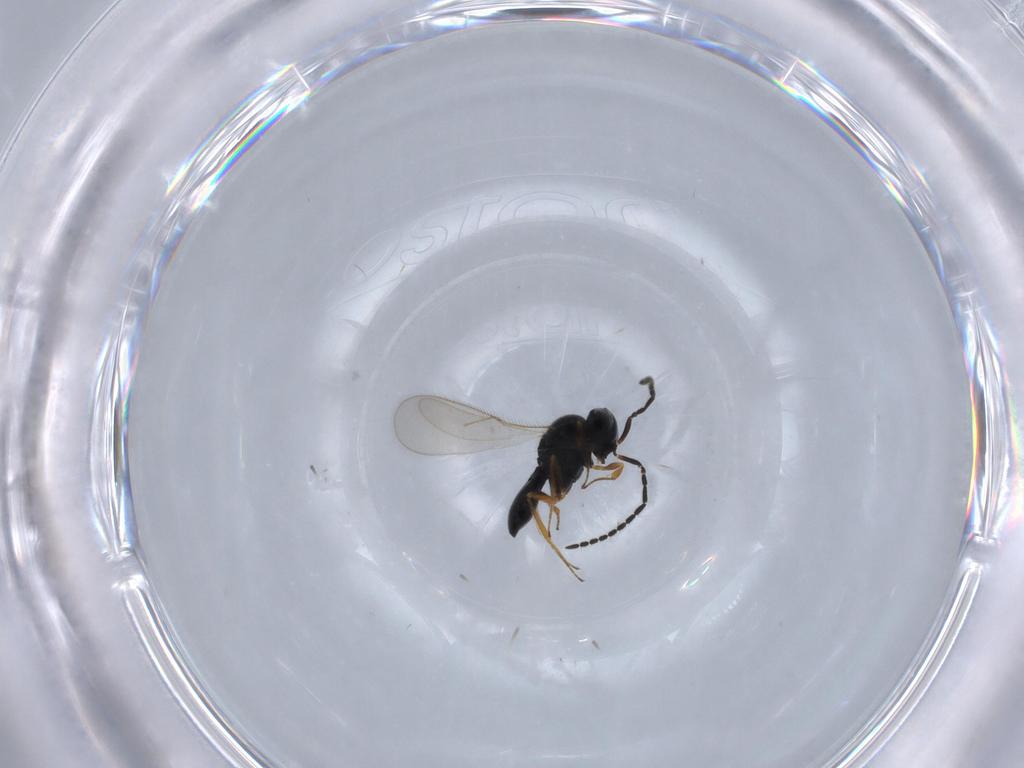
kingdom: Animalia
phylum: Arthropoda
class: Insecta
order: Hymenoptera
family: Scelionidae
